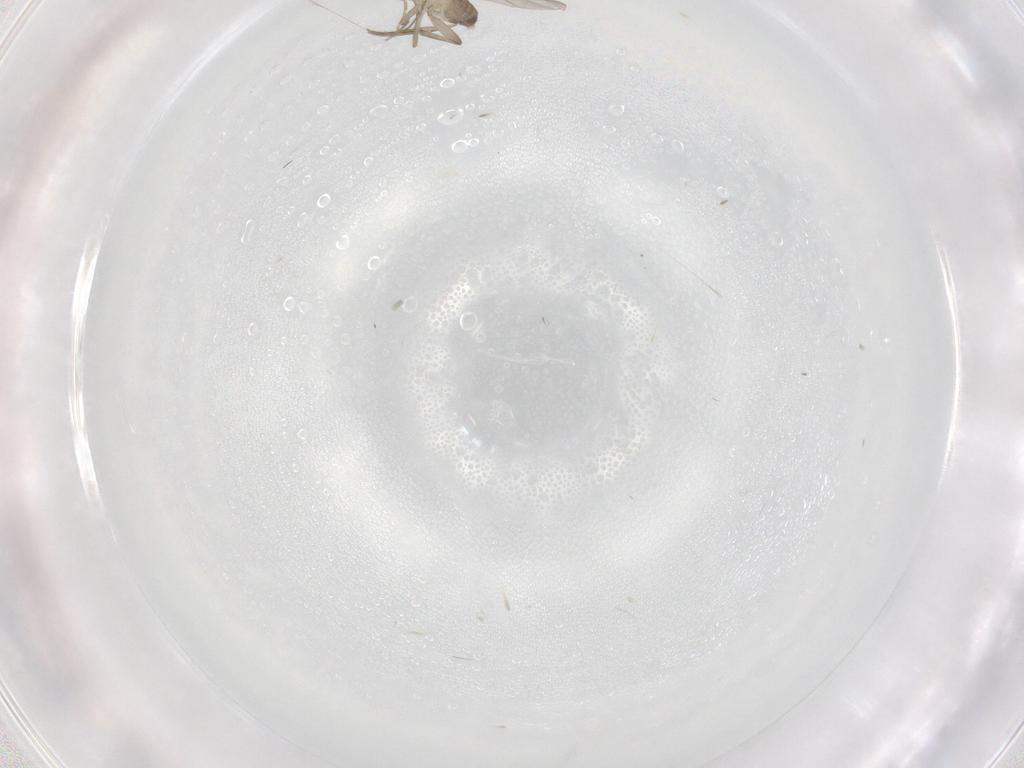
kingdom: Animalia
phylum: Arthropoda
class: Insecta
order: Diptera
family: Phoridae
